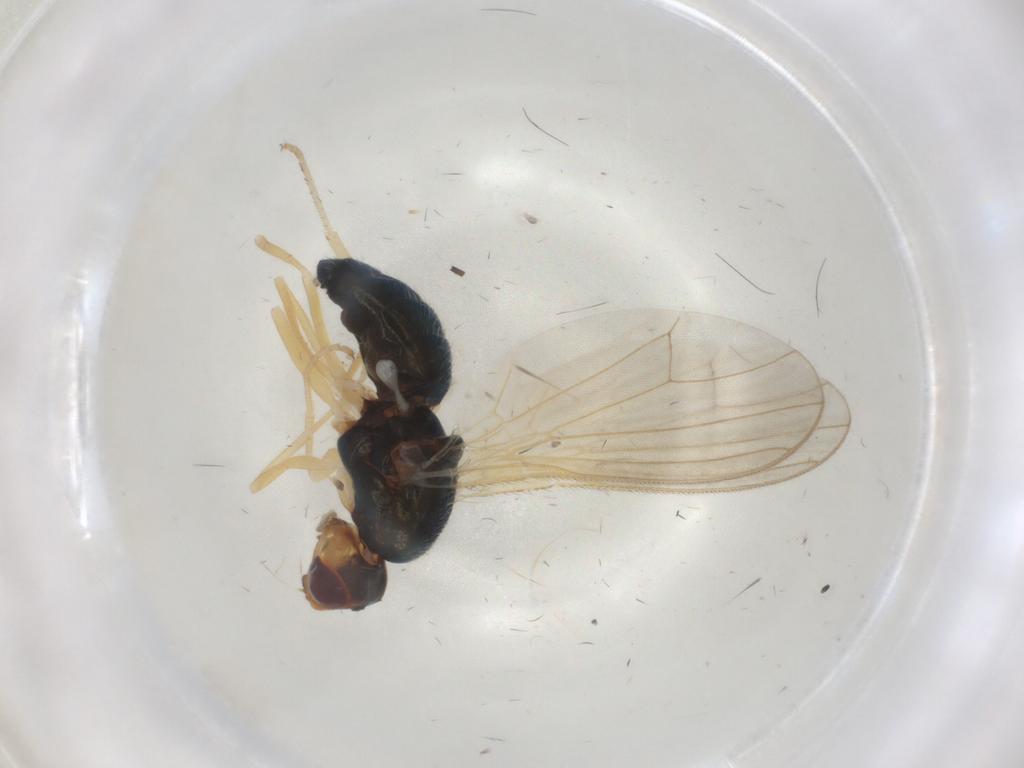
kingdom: Animalia
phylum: Arthropoda
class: Insecta
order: Diptera
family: Psilidae
